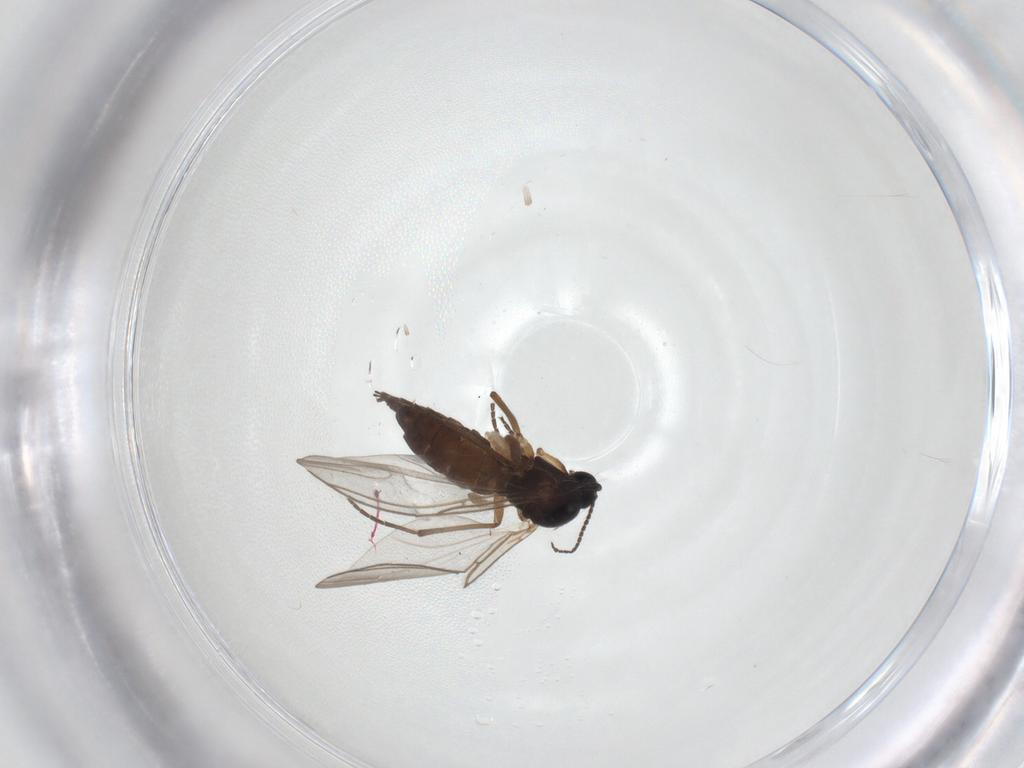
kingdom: Animalia
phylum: Arthropoda
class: Insecta
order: Diptera
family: Sciaridae
